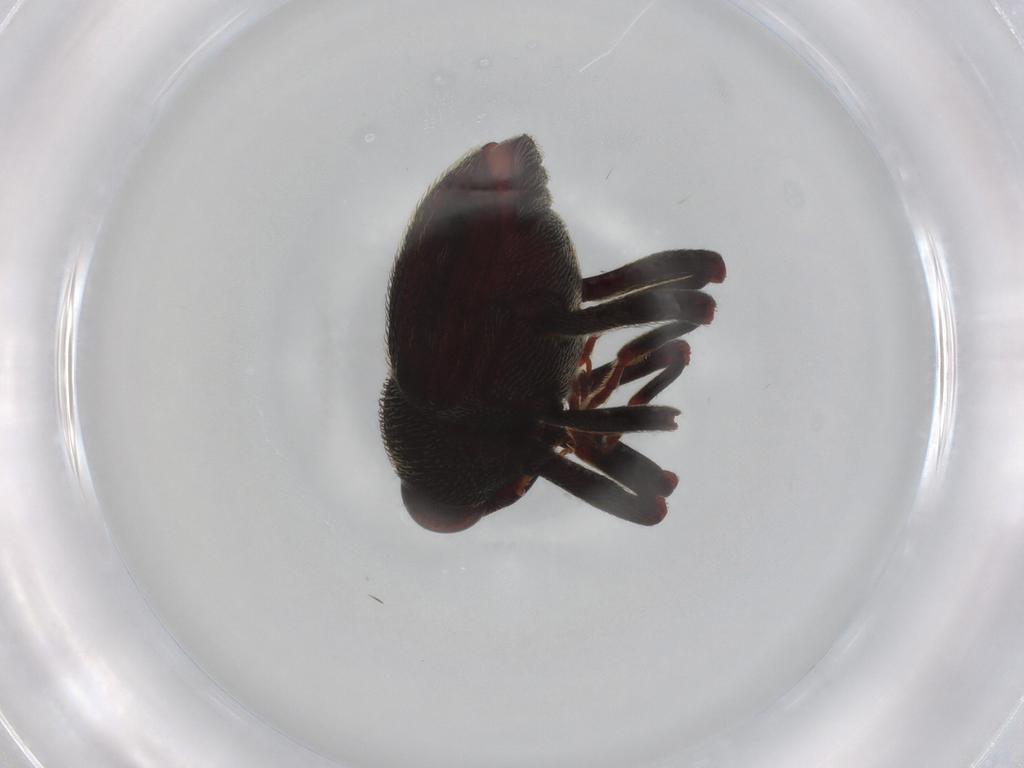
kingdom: Animalia
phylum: Arthropoda
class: Insecta
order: Coleoptera
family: Staphylinidae
